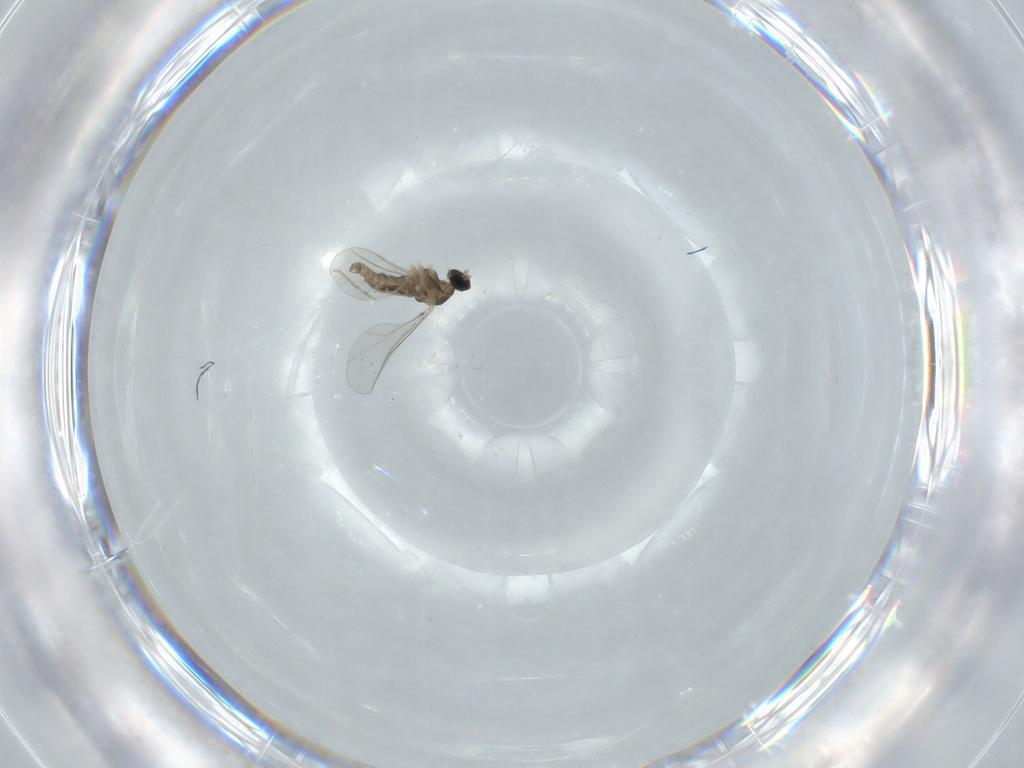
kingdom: Animalia
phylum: Arthropoda
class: Insecta
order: Diptera
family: Cecidomyiidae
